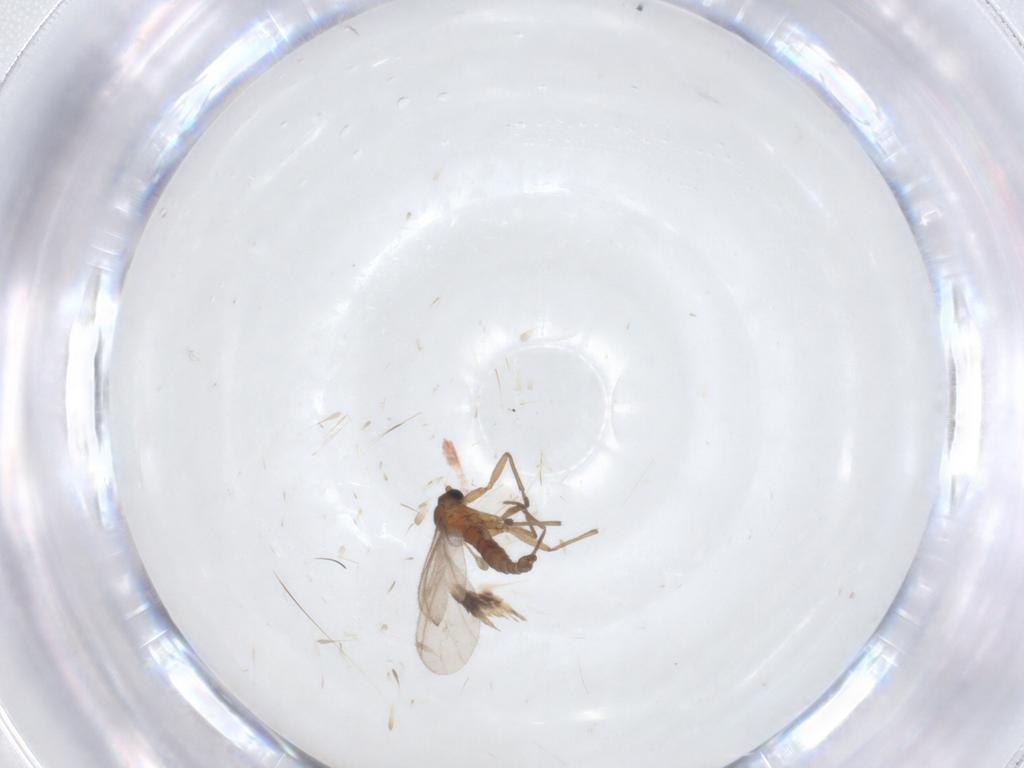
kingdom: Animalia
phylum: Arthropoda
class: Insecta
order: Diptera
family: Cecidomyiidae
